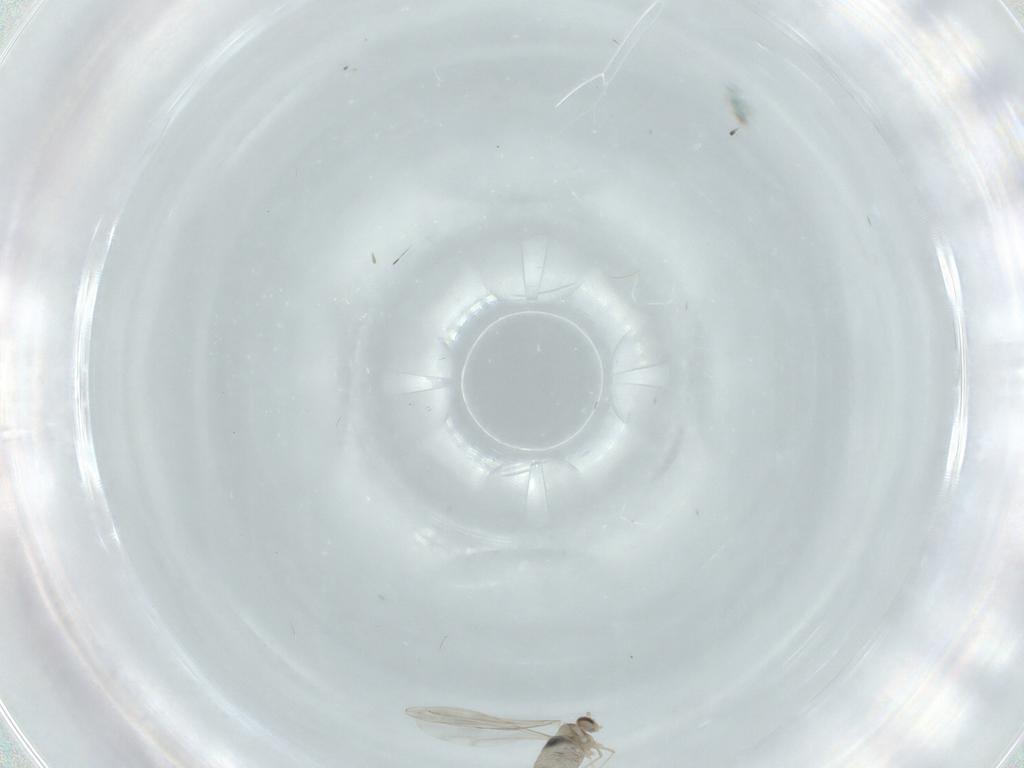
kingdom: Animalia
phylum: Arthropoda
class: Insecta
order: Diptera
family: Cecidomyiidae
